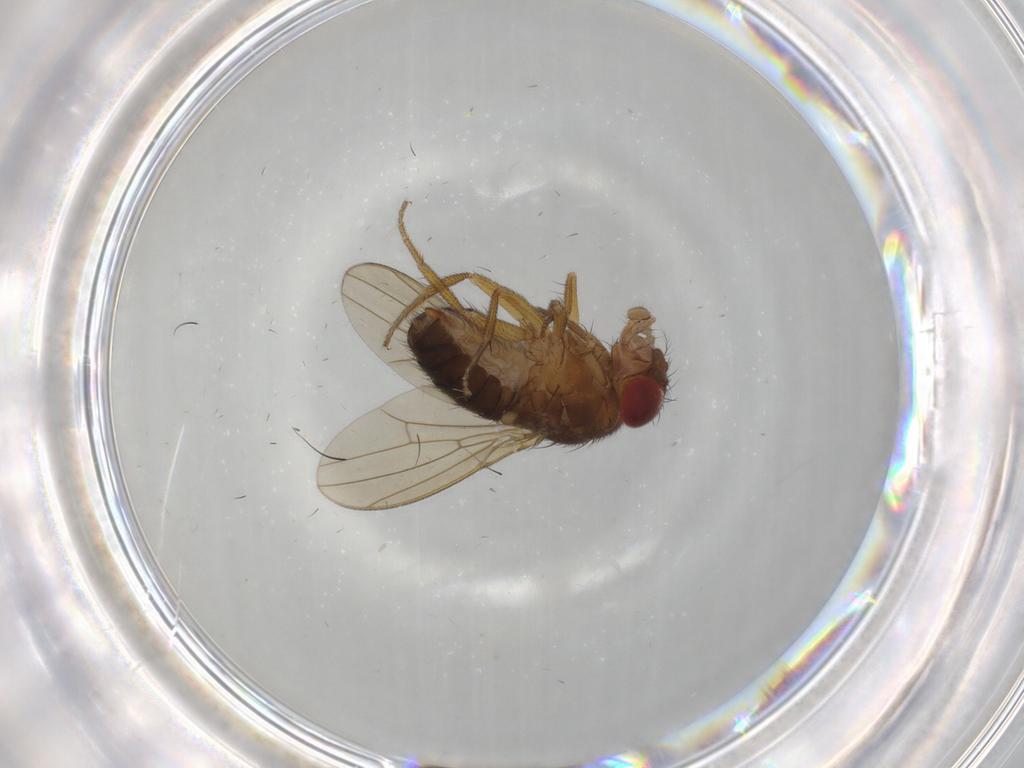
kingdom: Animalia
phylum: Arthropoda
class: Insecta
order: Diptera
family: Drosophilidae
